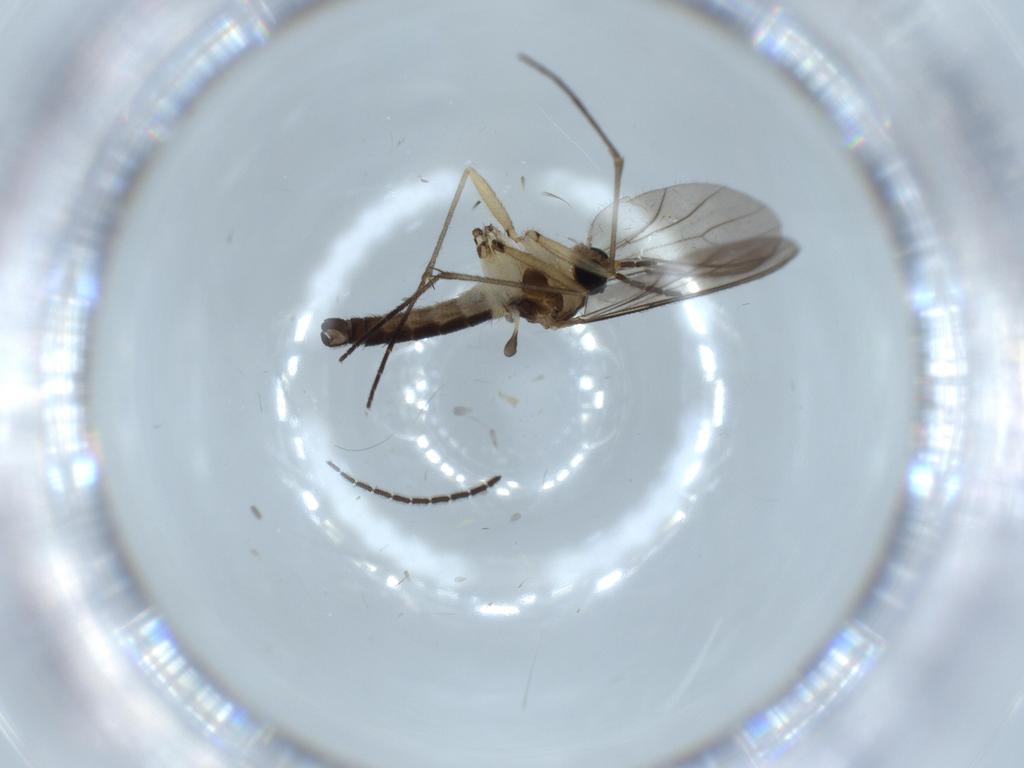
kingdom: Animalia
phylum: Arthropoda
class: Insecta
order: Diptera
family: Sciaridae
